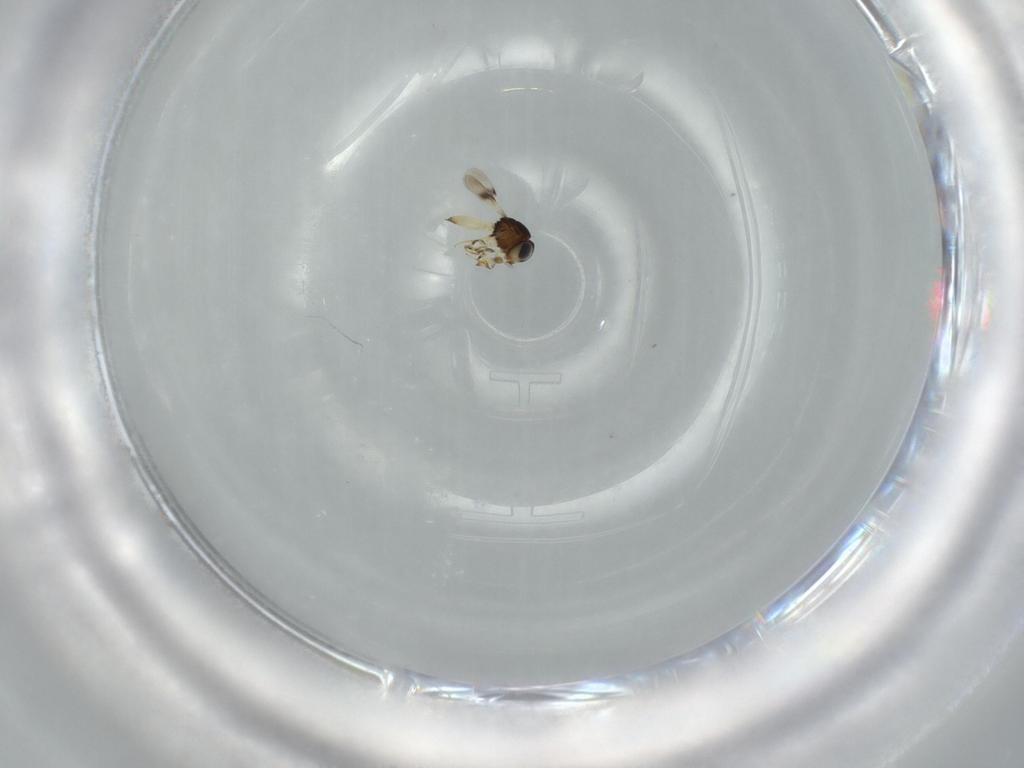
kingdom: Animalia
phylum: Arthropoda
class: Insecta
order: Hymenoptera
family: Scelionidae
